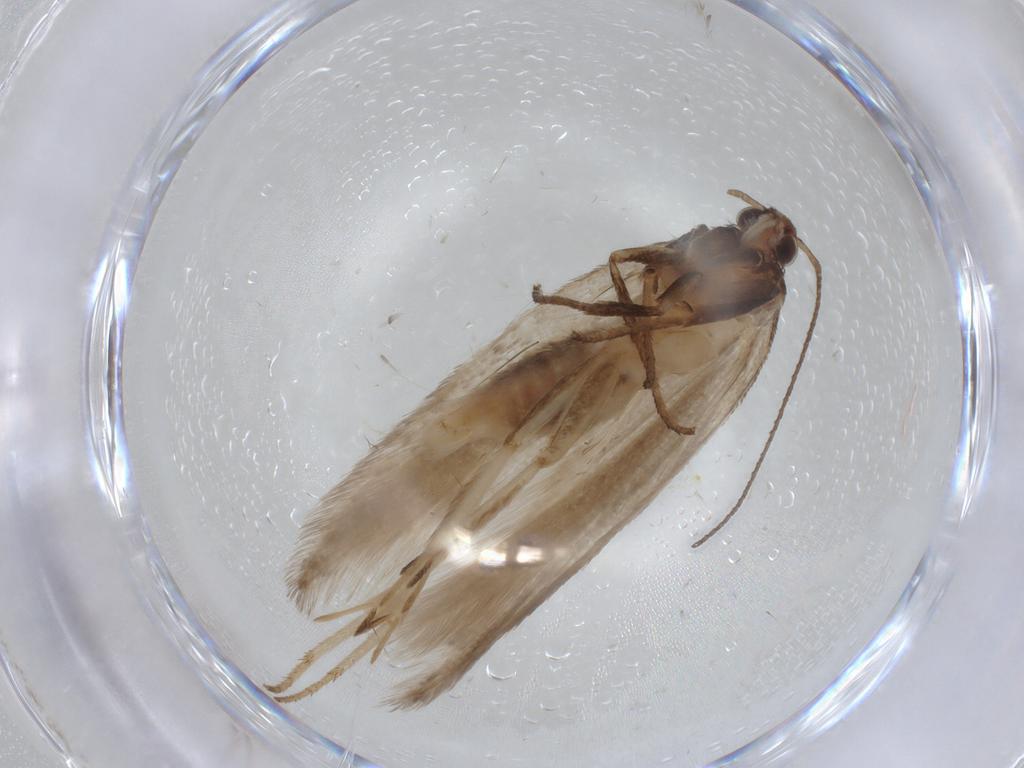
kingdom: Animalia
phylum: Arthropoda
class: Insecta
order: Lepidoptera
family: Gelechiidae
